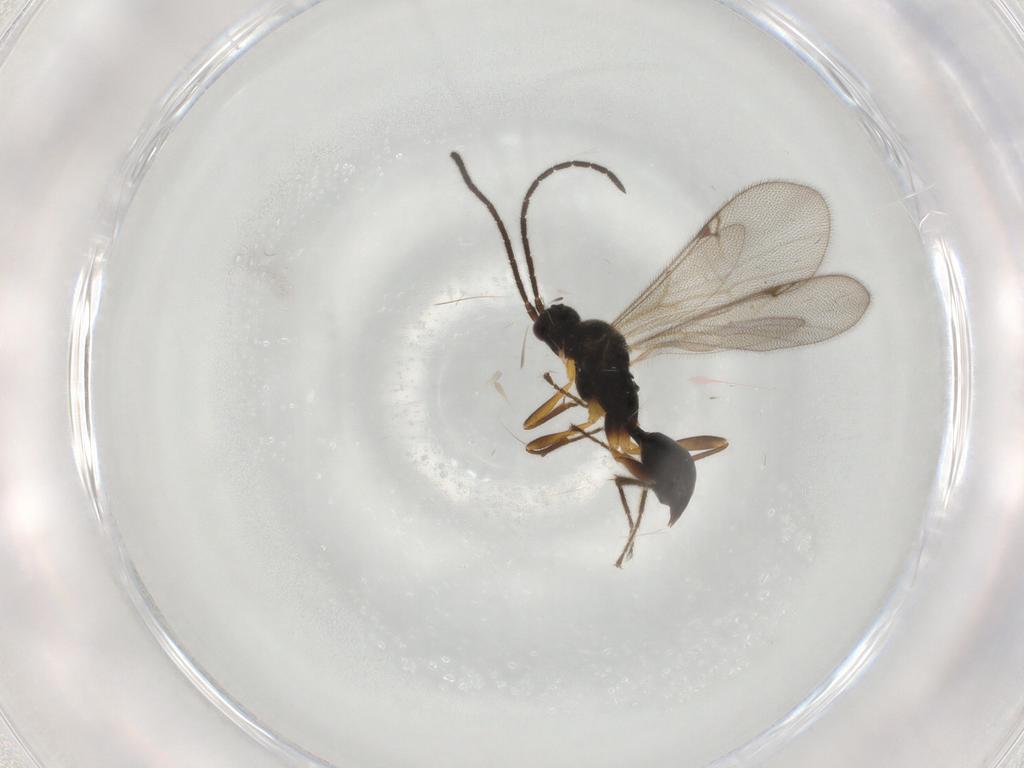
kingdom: Animalia
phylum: Arthropoda
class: Insecta
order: Hymenoptera
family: Proctotrupidae
